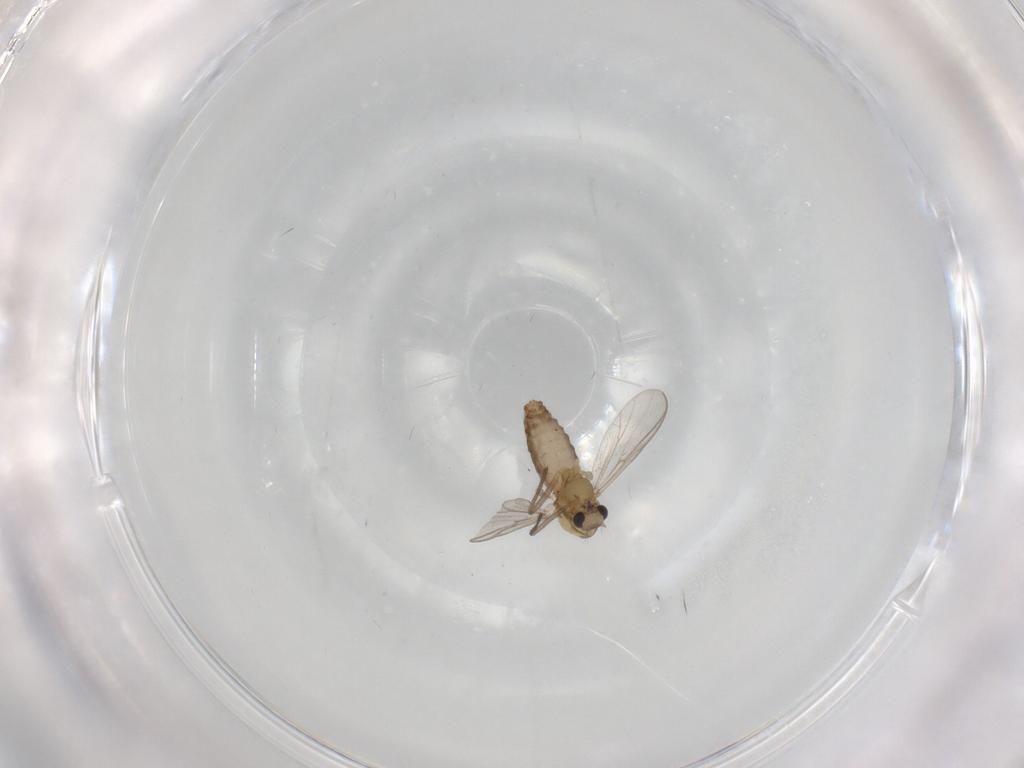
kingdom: Animalia
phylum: Arthropoda
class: Insecta
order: Diptera
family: Chironomidae
